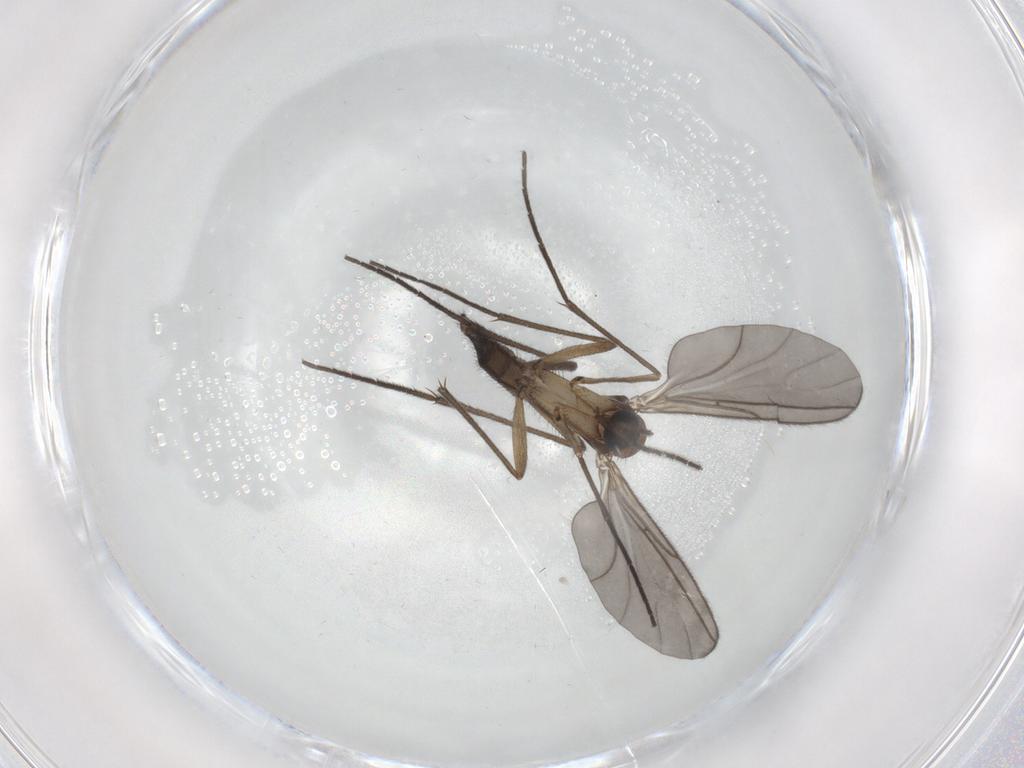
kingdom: Animalia
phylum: Arthropoda
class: Insecta
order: Diptera
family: Sciaridae
